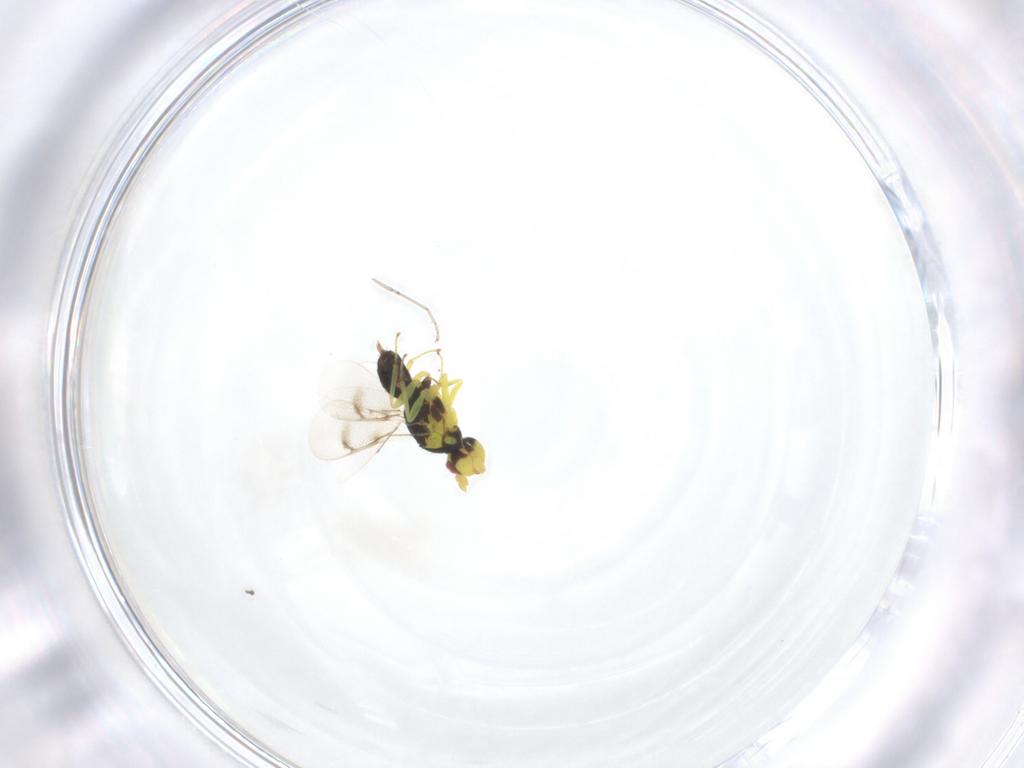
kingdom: Animalia
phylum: Arthropoda
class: Insecta
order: Hymenoptera
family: Eulophidae
